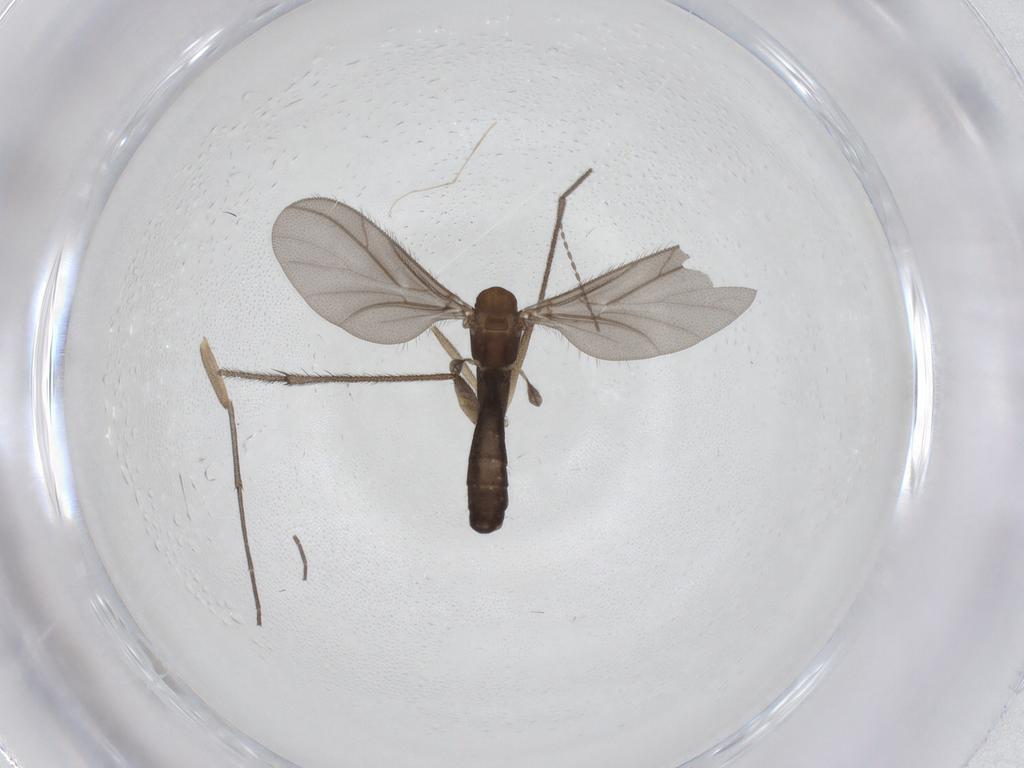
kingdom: Animalia
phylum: Arthropoda
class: Insecta
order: Diptera
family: Ditomyiidae
